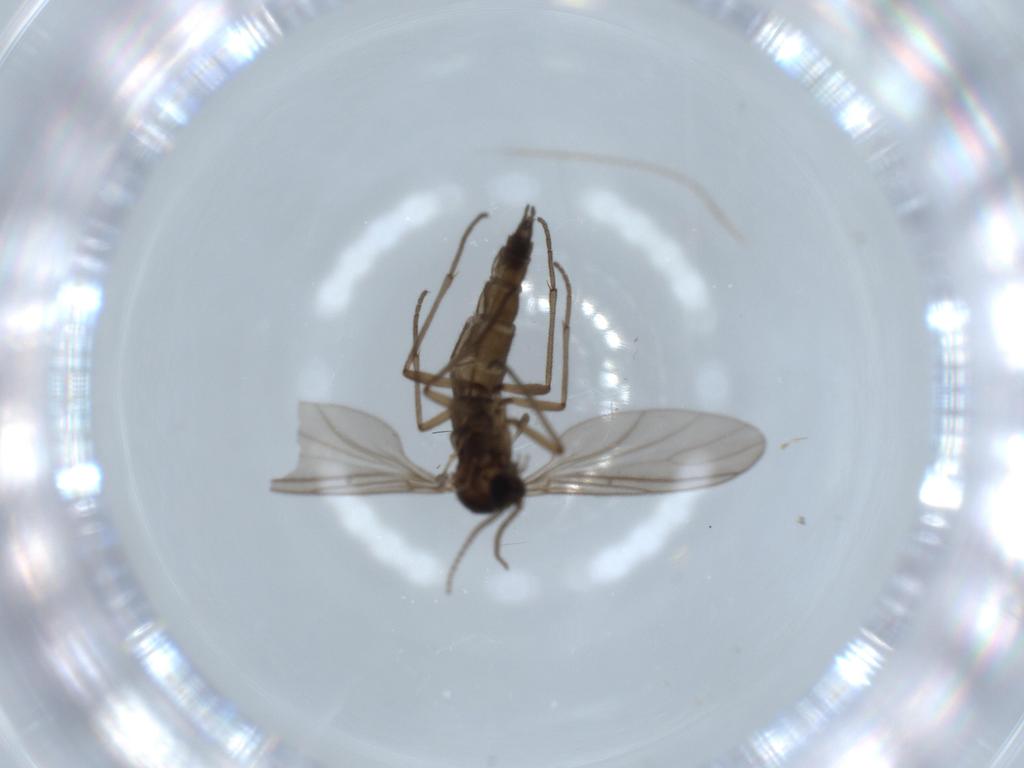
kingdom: Animalia
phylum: Arthropoda
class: Insecta
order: Diptera
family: Sciaridae
